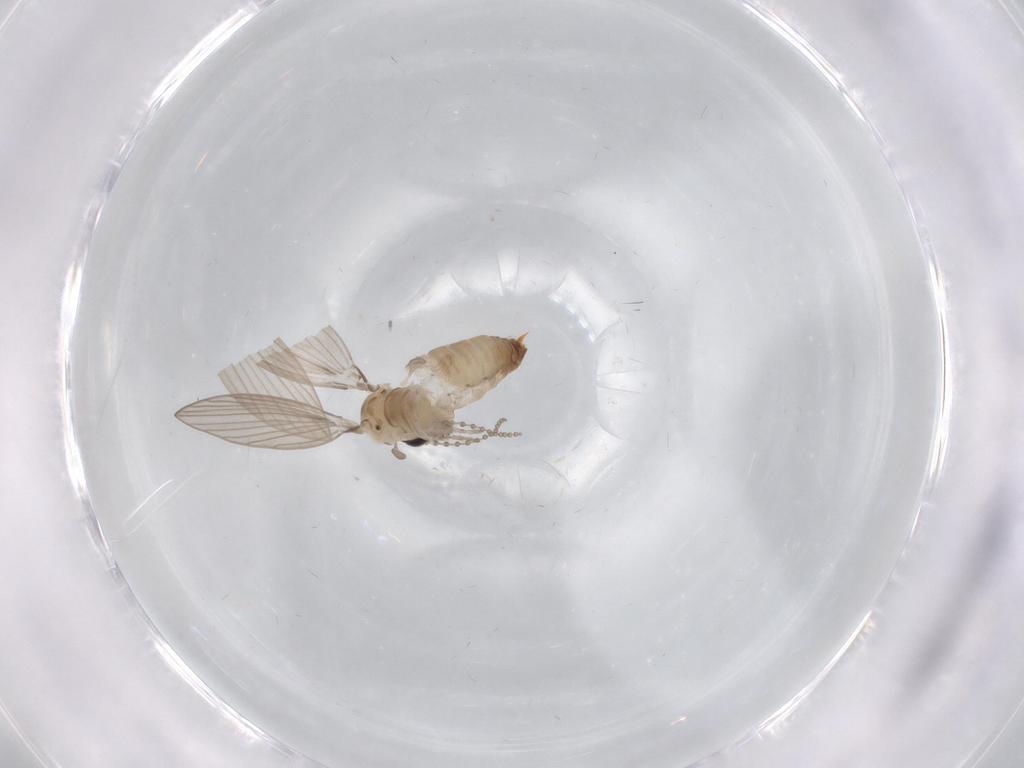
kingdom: Animalia
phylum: Arthropoda
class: Insecta
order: Diptera
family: Psychodidae
